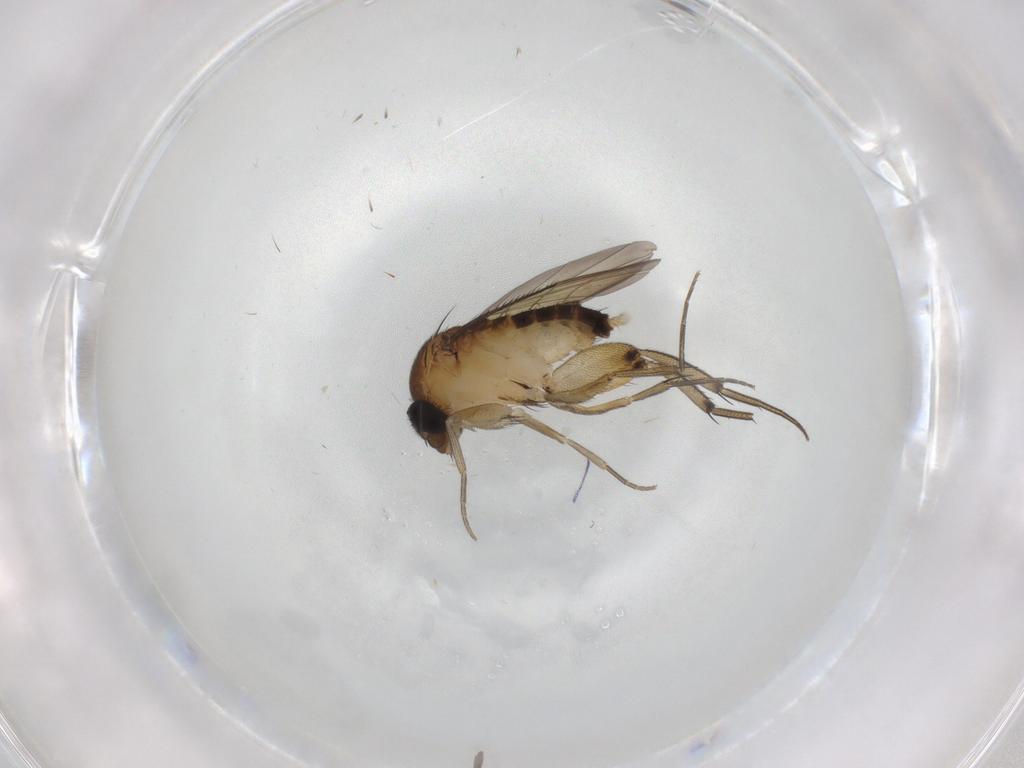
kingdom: Animalia
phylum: Arthropoda
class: Insecta
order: Diptera
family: Phoridae
